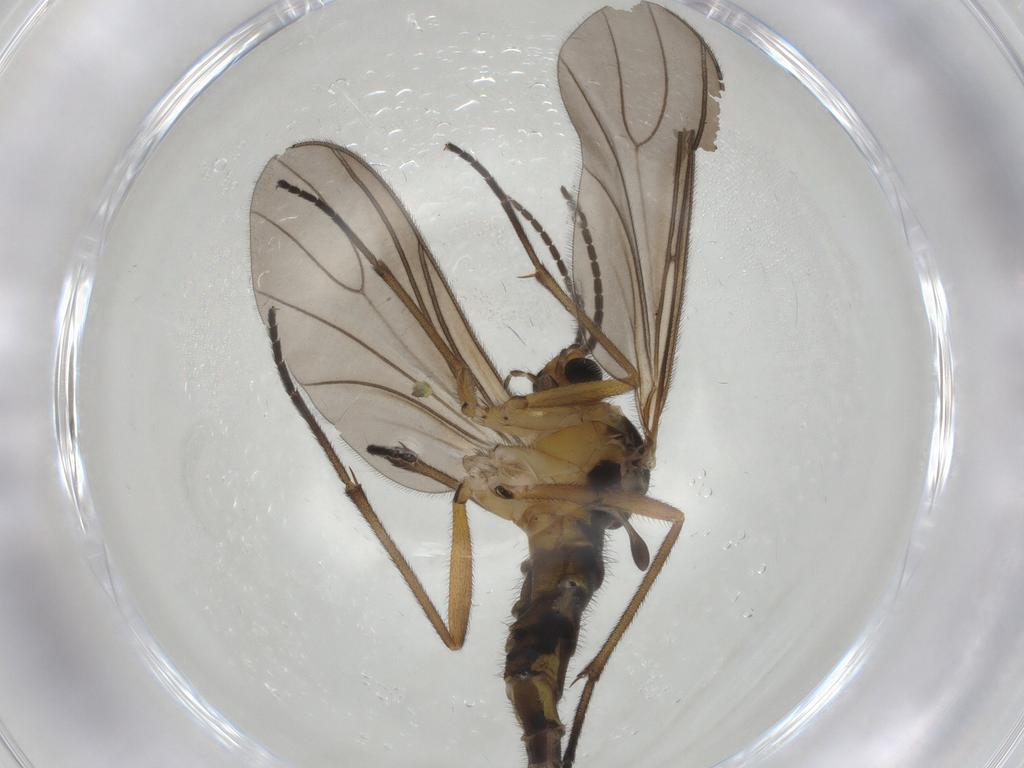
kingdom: Animalia
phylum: Arthropoda
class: Insecta
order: Diptera
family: Sciaridae
